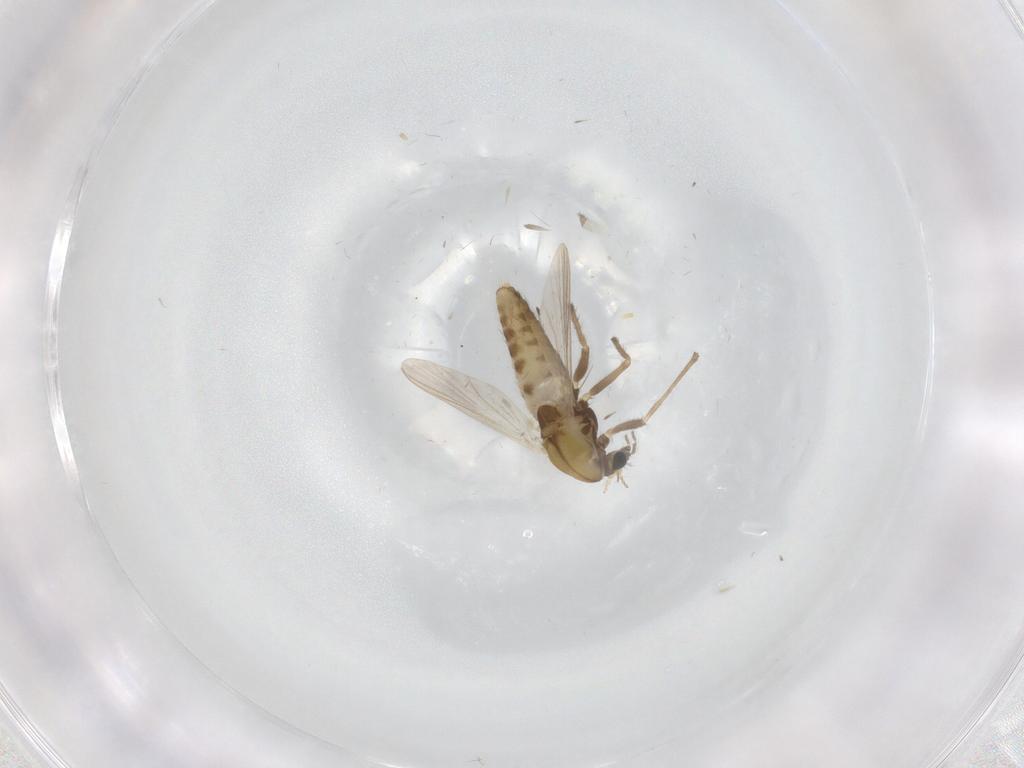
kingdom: Animalia
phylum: Arthropoda
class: Insecta
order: Diptera
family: Chironomidae
